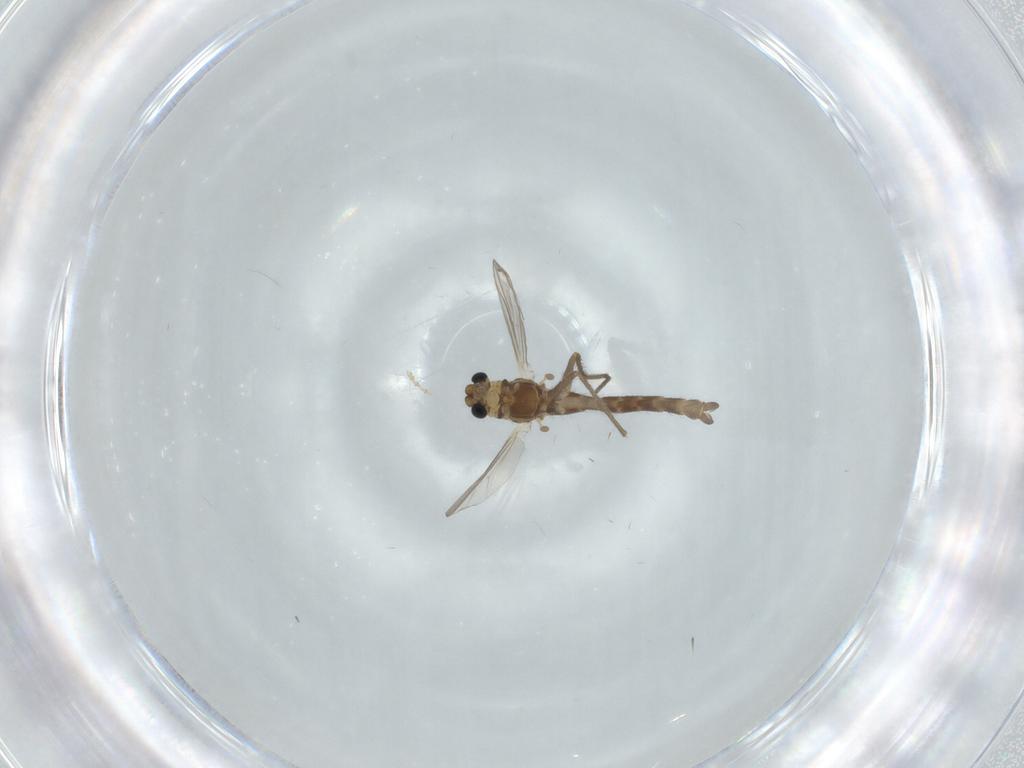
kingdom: Animalia
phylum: Arthropoda
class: Insecta
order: Diptera
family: Chironomidae
